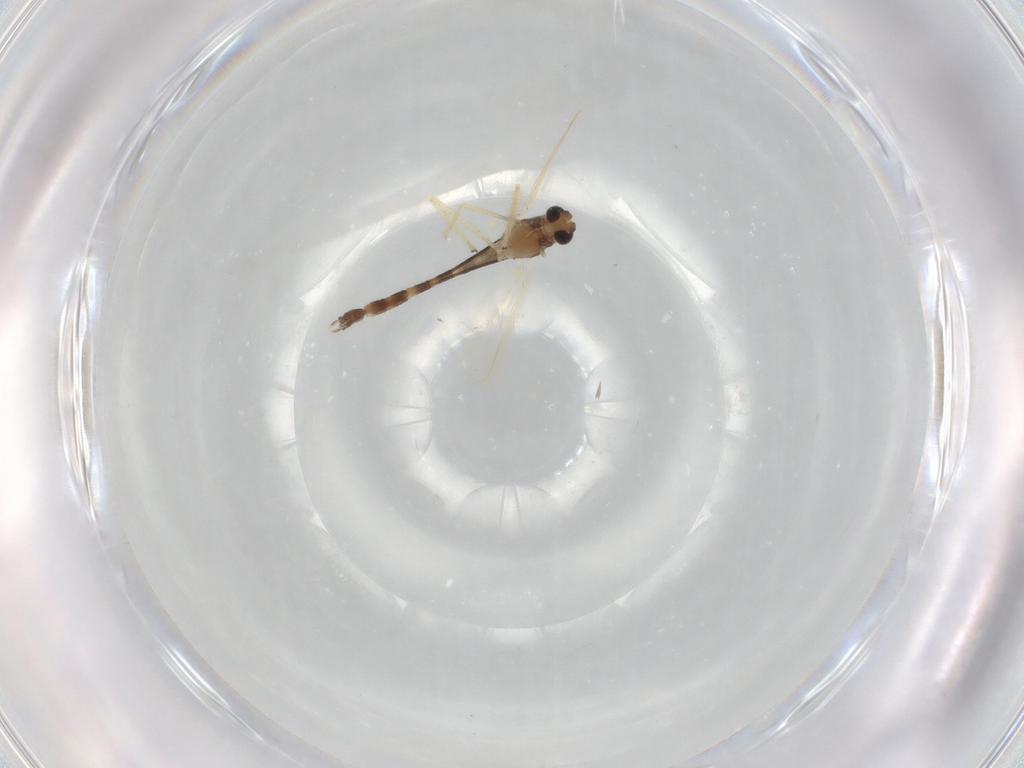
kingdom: Animalia
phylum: Arthropoda
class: Insecta
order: Diptera
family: Chironomidae
